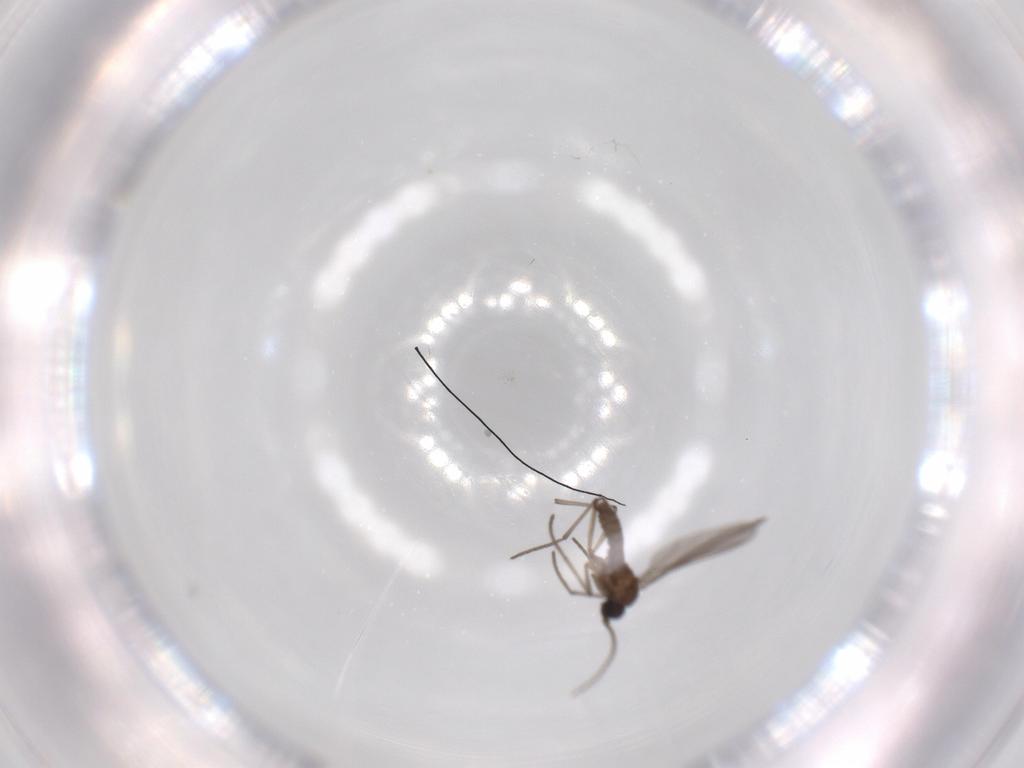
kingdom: Animalia
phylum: Arthropoda
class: Insecta
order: Diptera
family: Sciaridae
